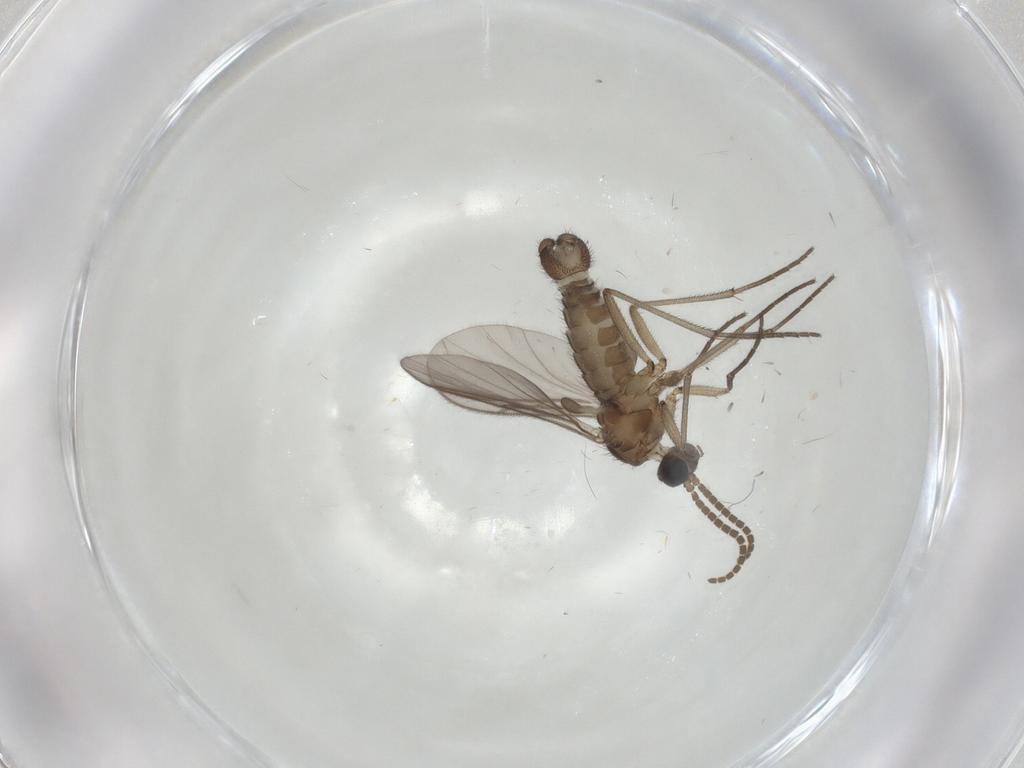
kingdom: Animalia
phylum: Arthropoda
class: Insecta
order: Diptera
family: Sciaridae
